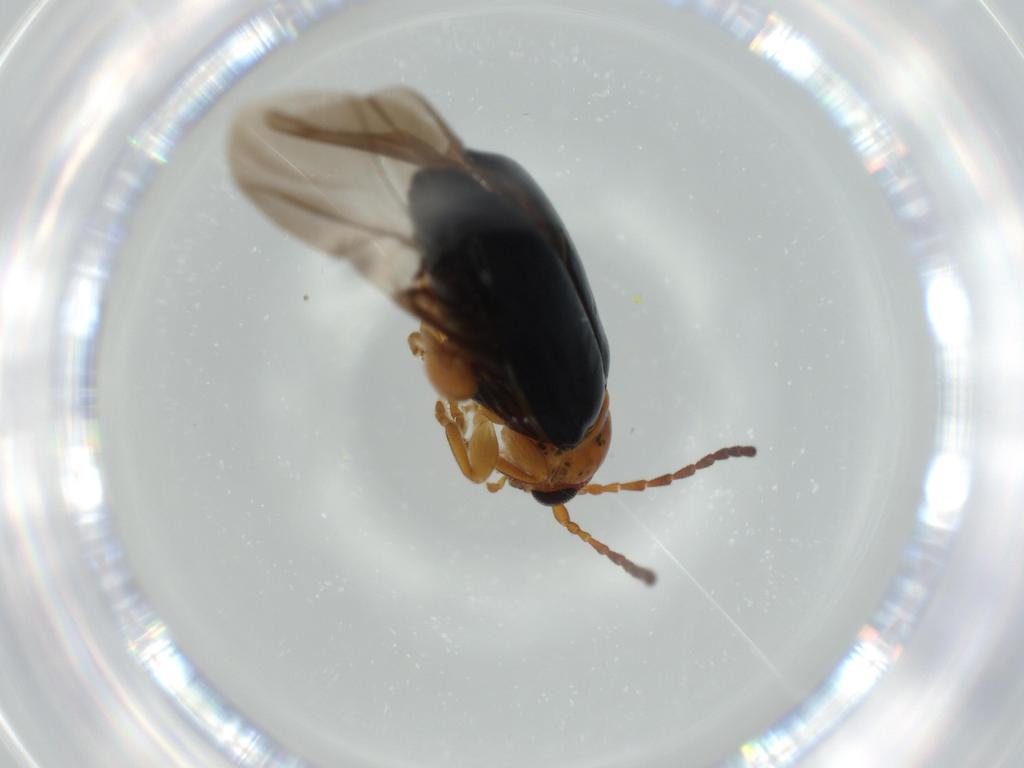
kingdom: Animalia
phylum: Arthropoda
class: Insecta
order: Coleoptera
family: Chrysomelidae
